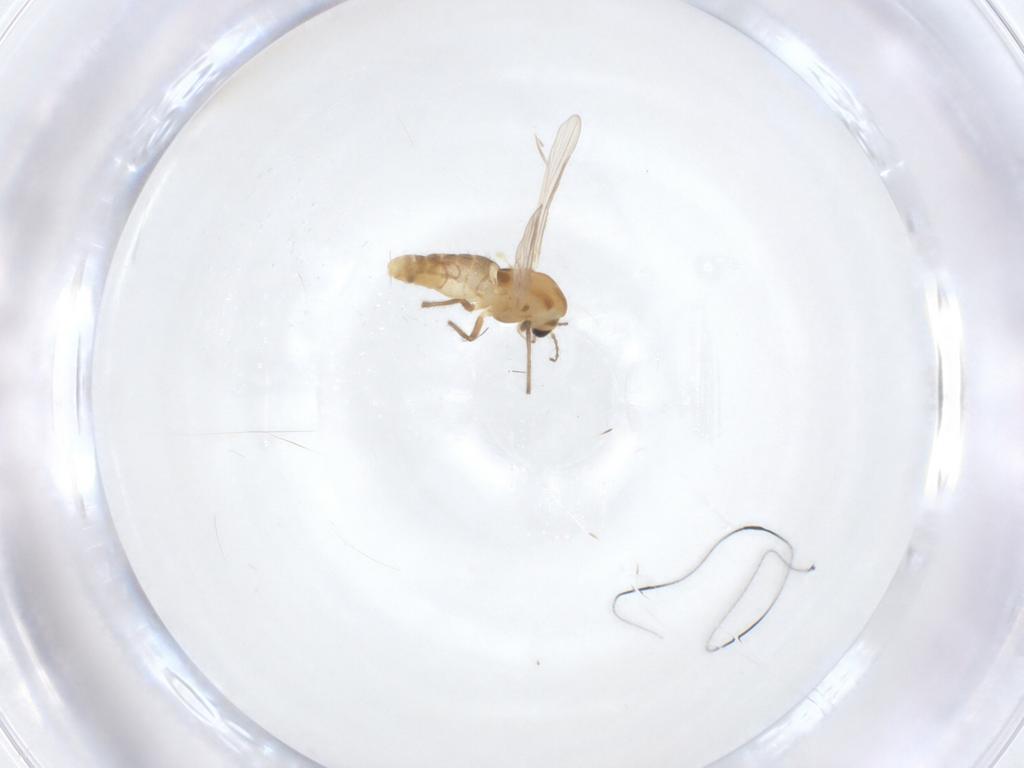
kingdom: Animalia
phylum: Arthropoda
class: Insecta
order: Diptera
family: Chironomidae
